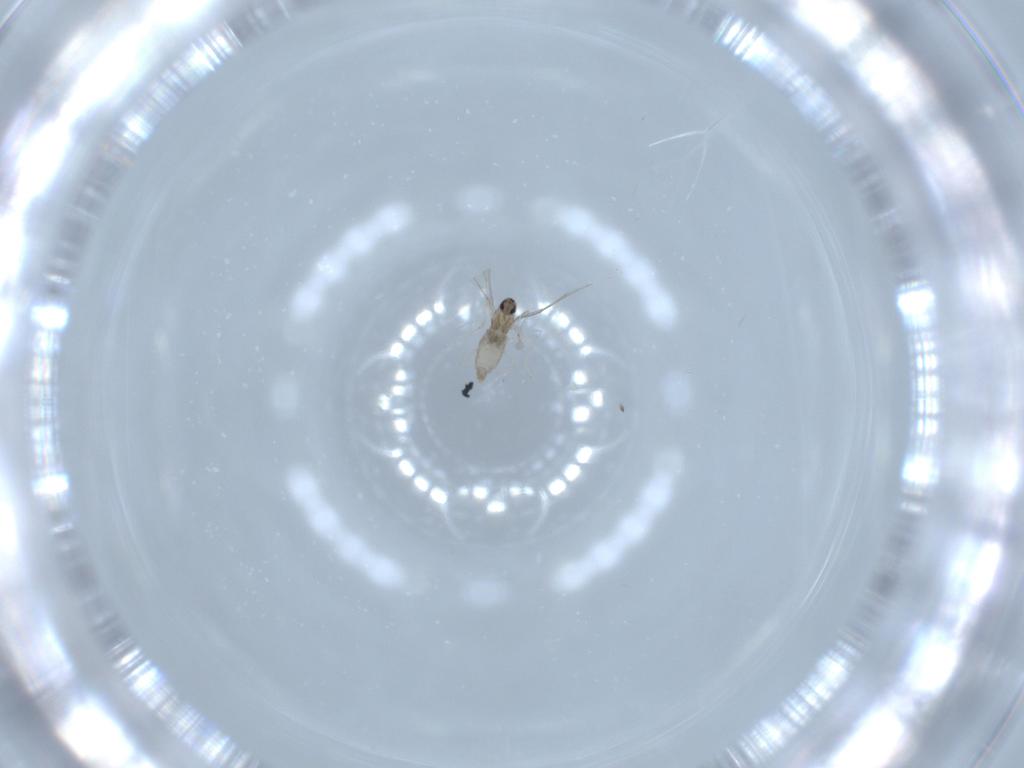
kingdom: Animalia
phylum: Arthropoda
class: Insecta
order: Diptera
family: Cecidomyiidae
